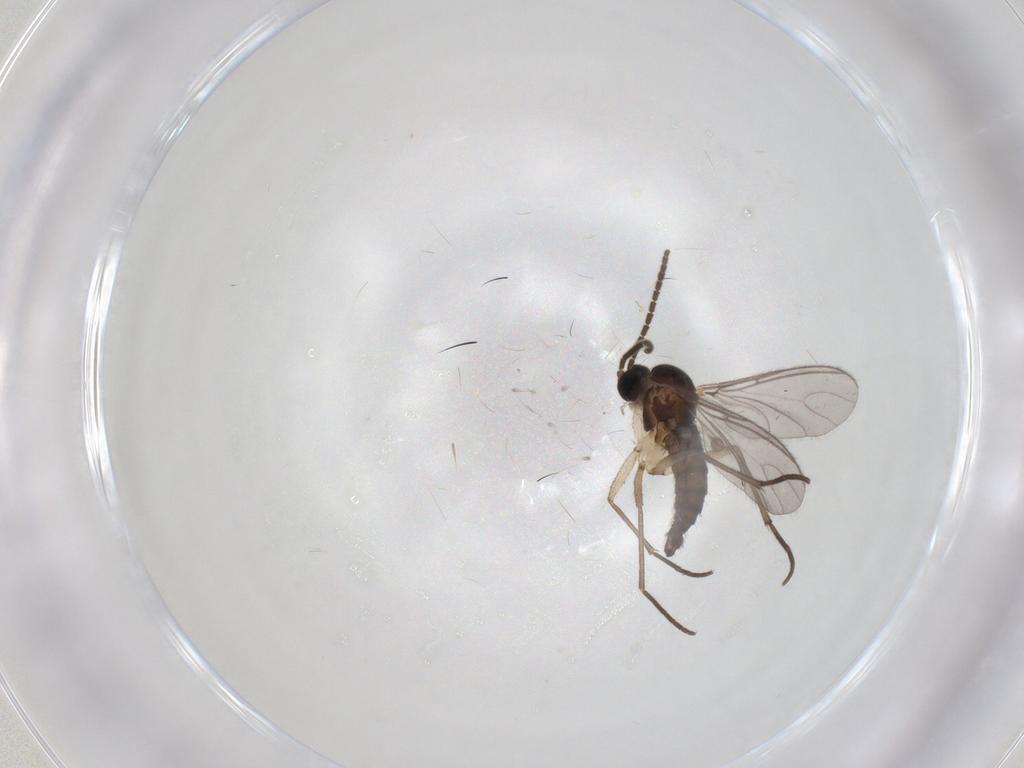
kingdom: Animalia
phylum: Arthropoda
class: Insecta
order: Diptera
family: Sciaridae
